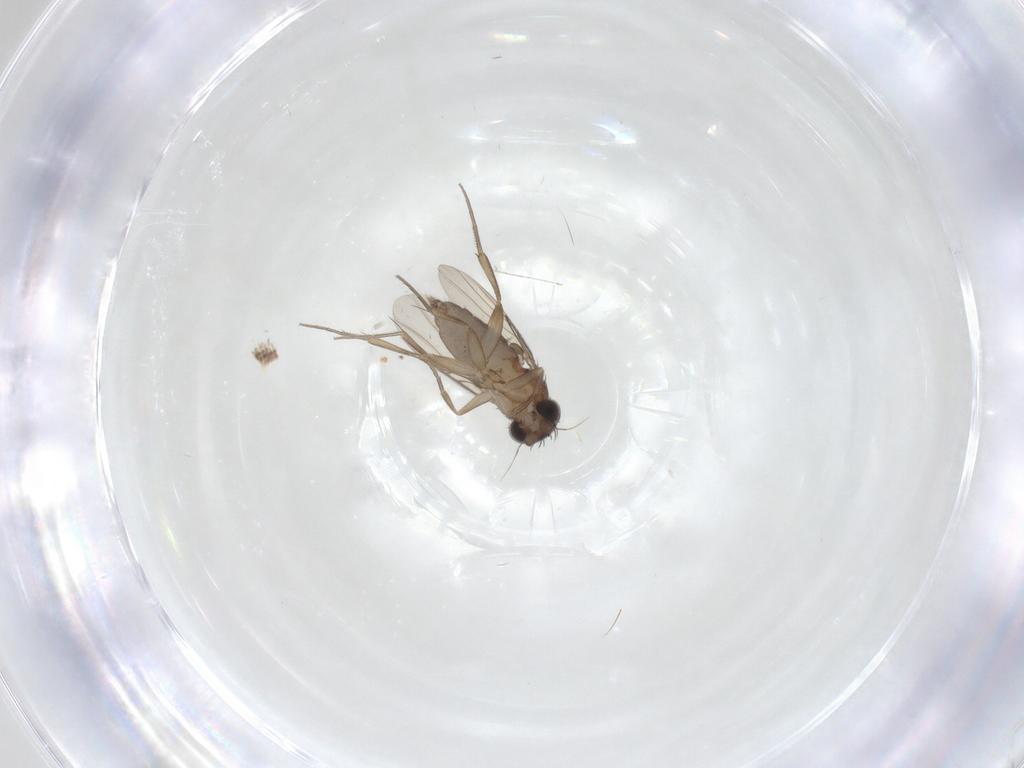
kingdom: Animalia
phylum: Arthropoda
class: Insecta
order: Diptera
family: Phoridae
